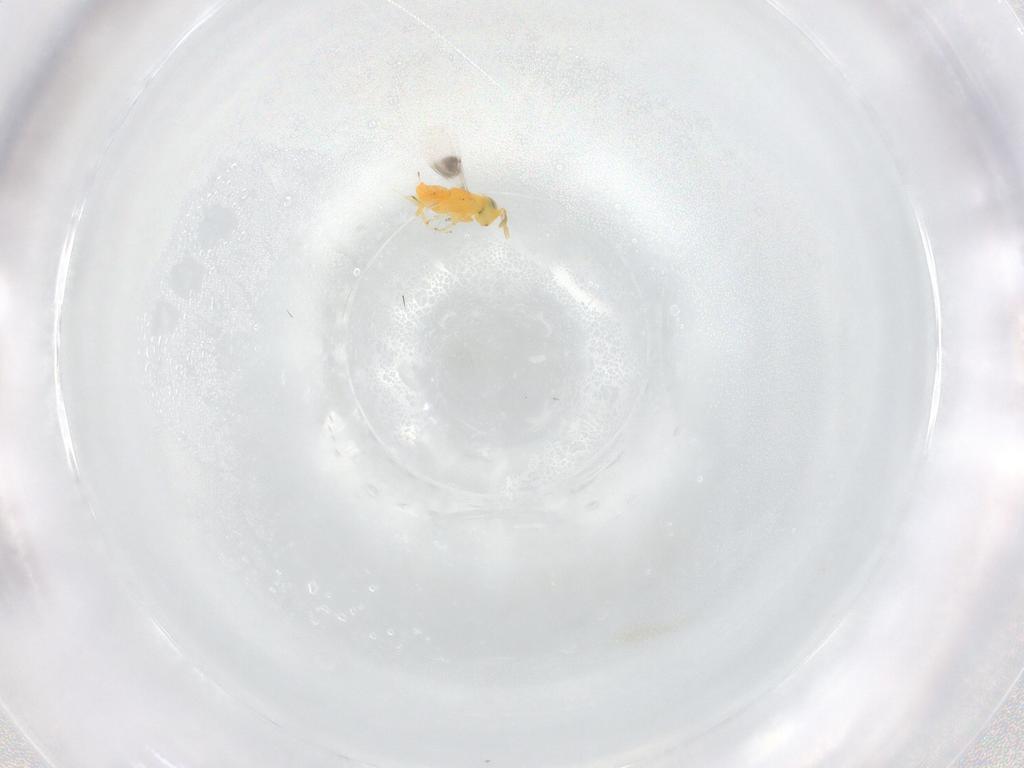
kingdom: Animalia
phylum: Arthropoda
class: Insecta
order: Hymenoptera
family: Encyrtidae
